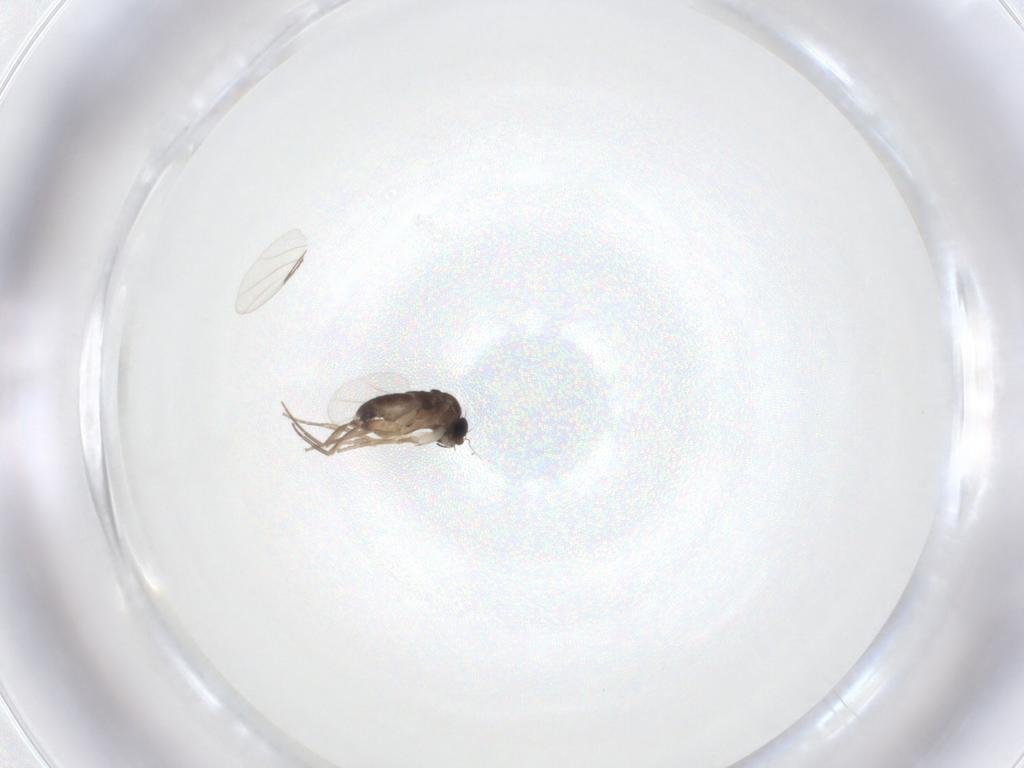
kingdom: Animalia
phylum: Arthropoda
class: Insecta
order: Diptera
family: Phoridae
